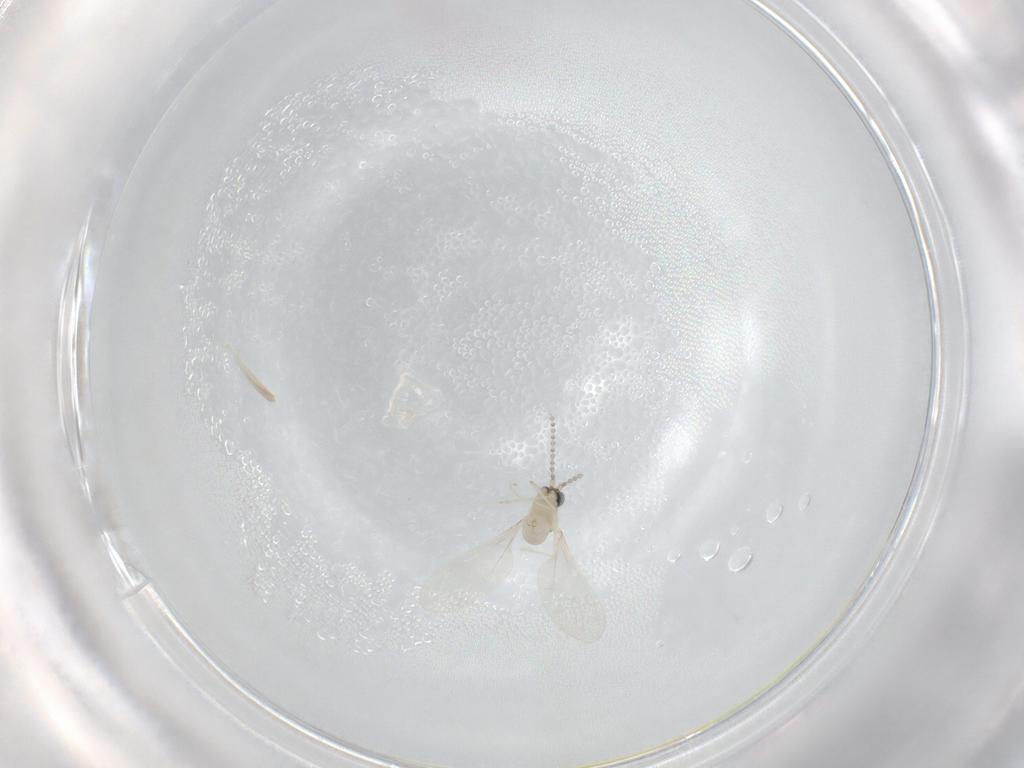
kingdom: Animalia
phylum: Arthropoda
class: Insecta
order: Diptera
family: Cecidomyiidae
